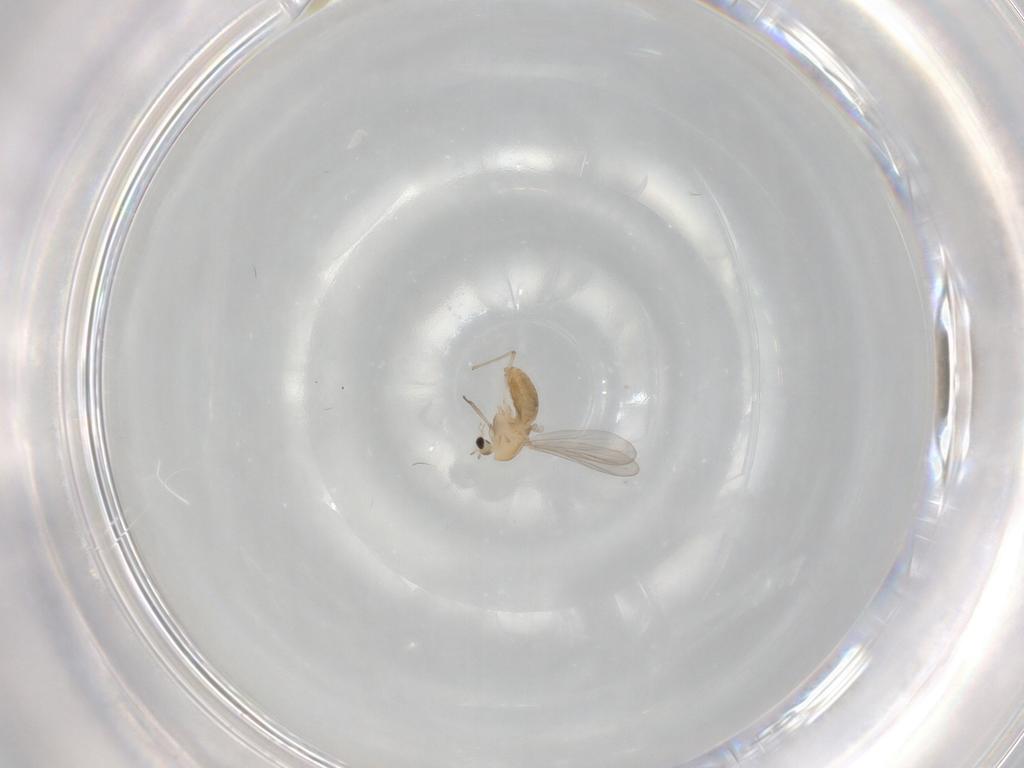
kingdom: Animalia
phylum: Arthropoda
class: Insecta
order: Diptera
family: Chironomidae
